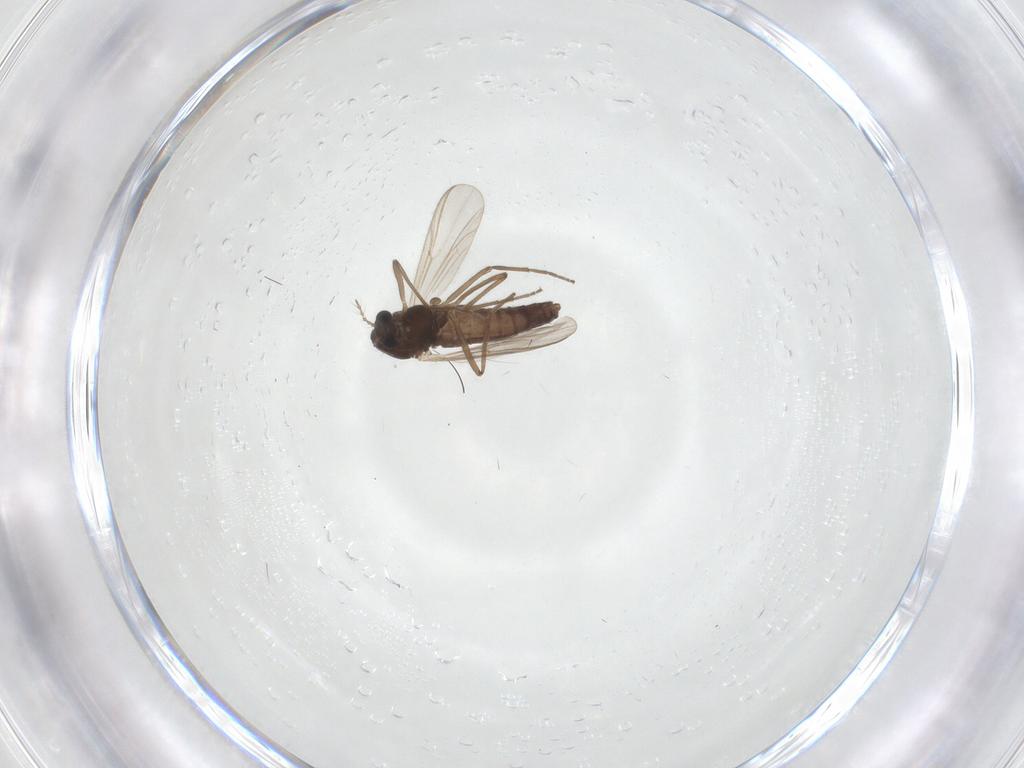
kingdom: Animalia
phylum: Arthropoda
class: Insecta
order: Diptera
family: Chironomidae
